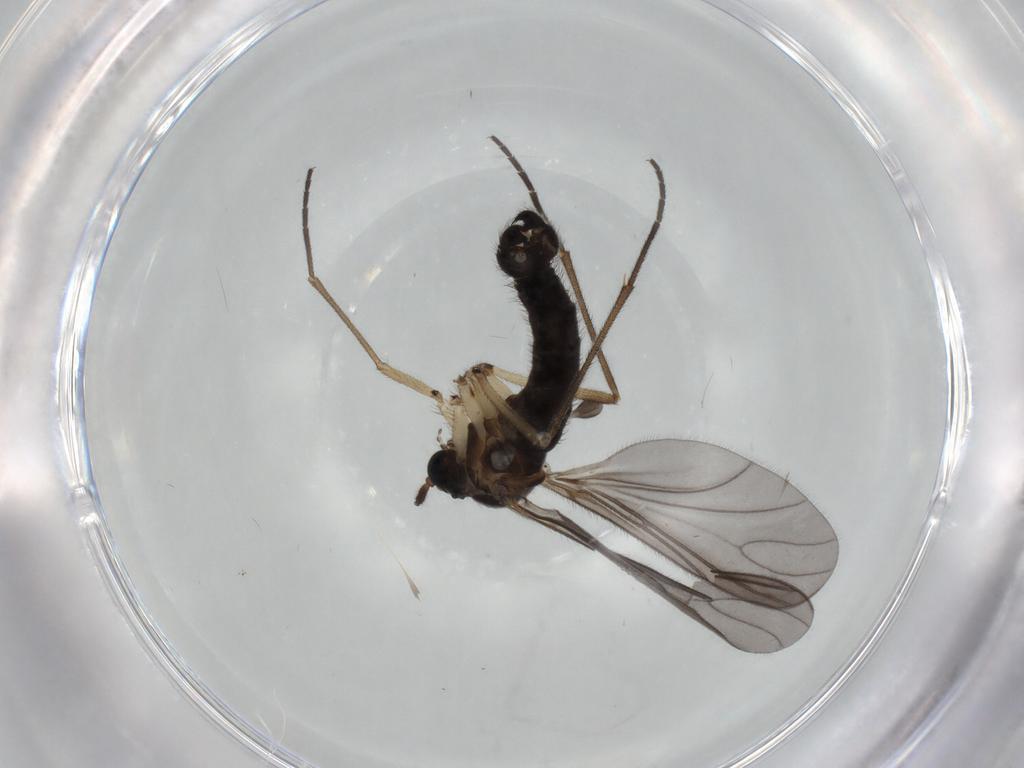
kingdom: Animalia
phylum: Arthropoda
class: Insecta
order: Diptera
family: Sciaridae
